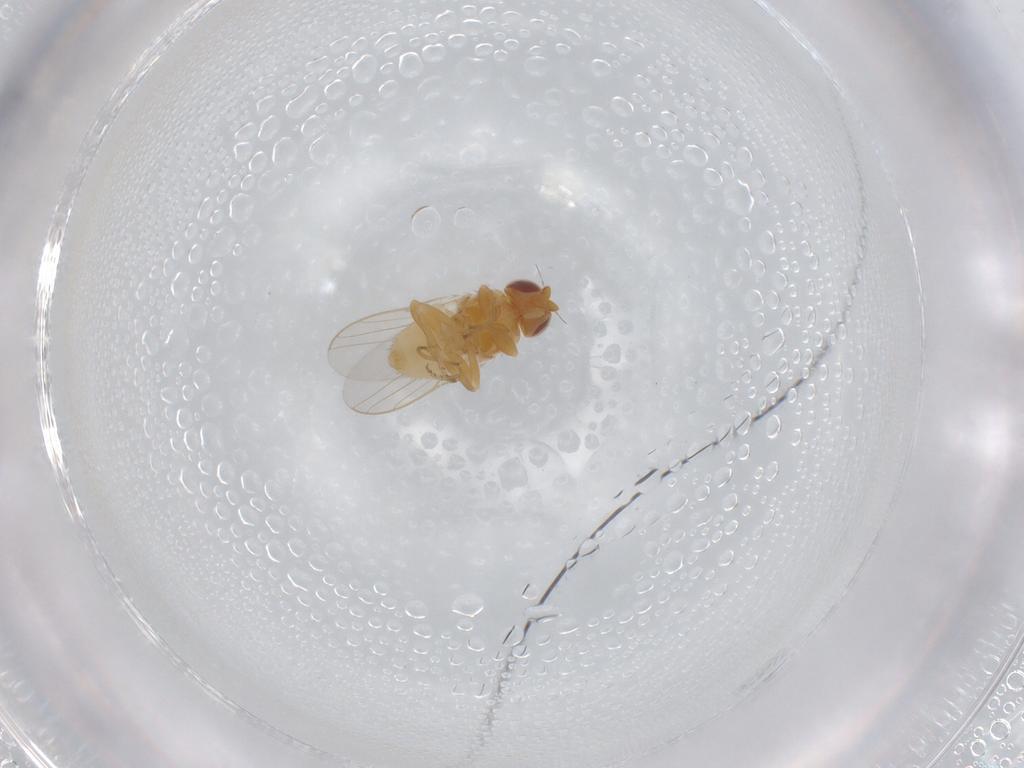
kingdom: Animalia
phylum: Arthropoda
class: Insecta
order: Diptera
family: Chloropidae
